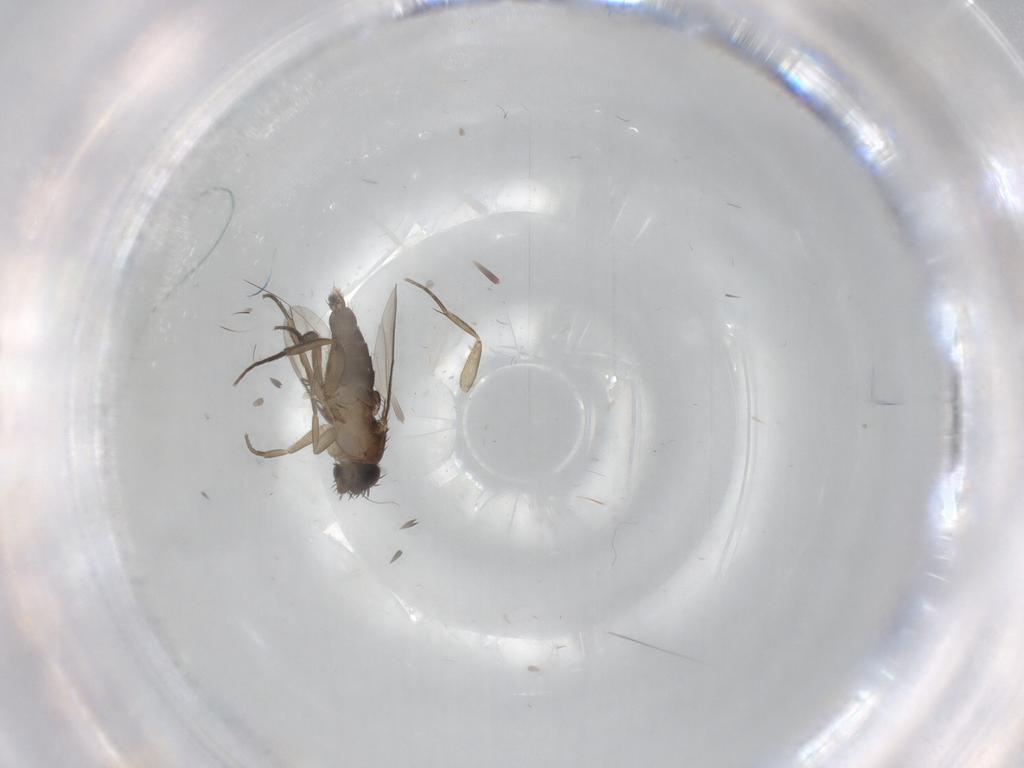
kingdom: Animalia
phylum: Arthropoda
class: Insecta
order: Diptera
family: Phoridae
